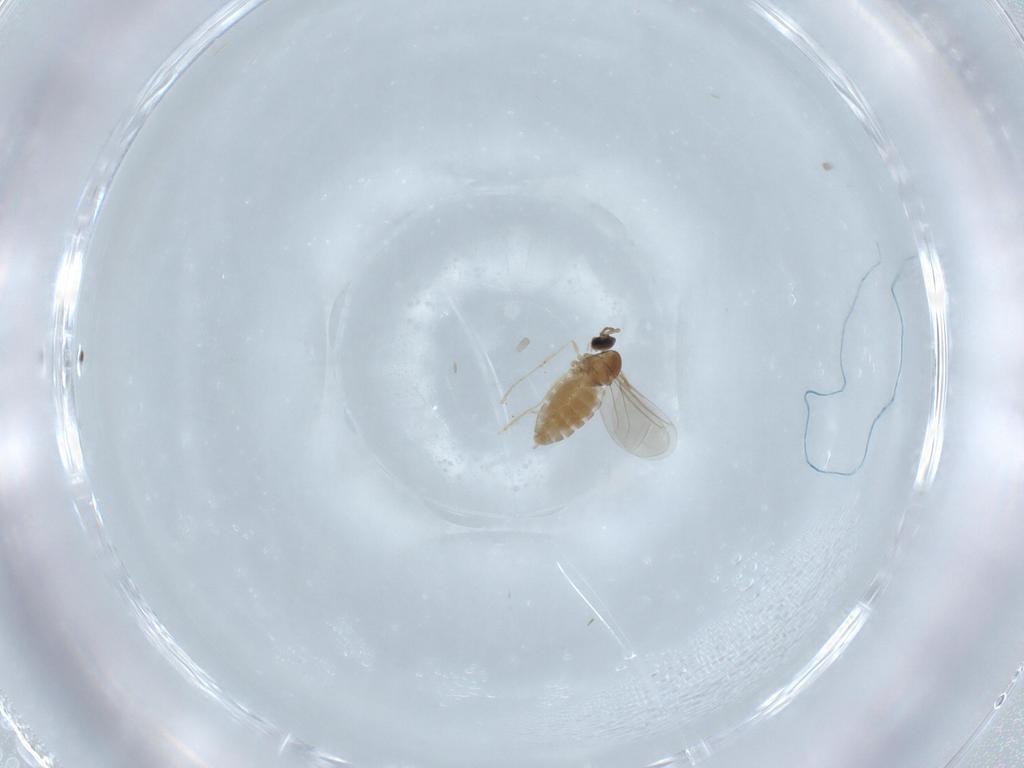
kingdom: Animalia
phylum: Arthropoda
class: Insecta
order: Diptera
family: Chironomidae
